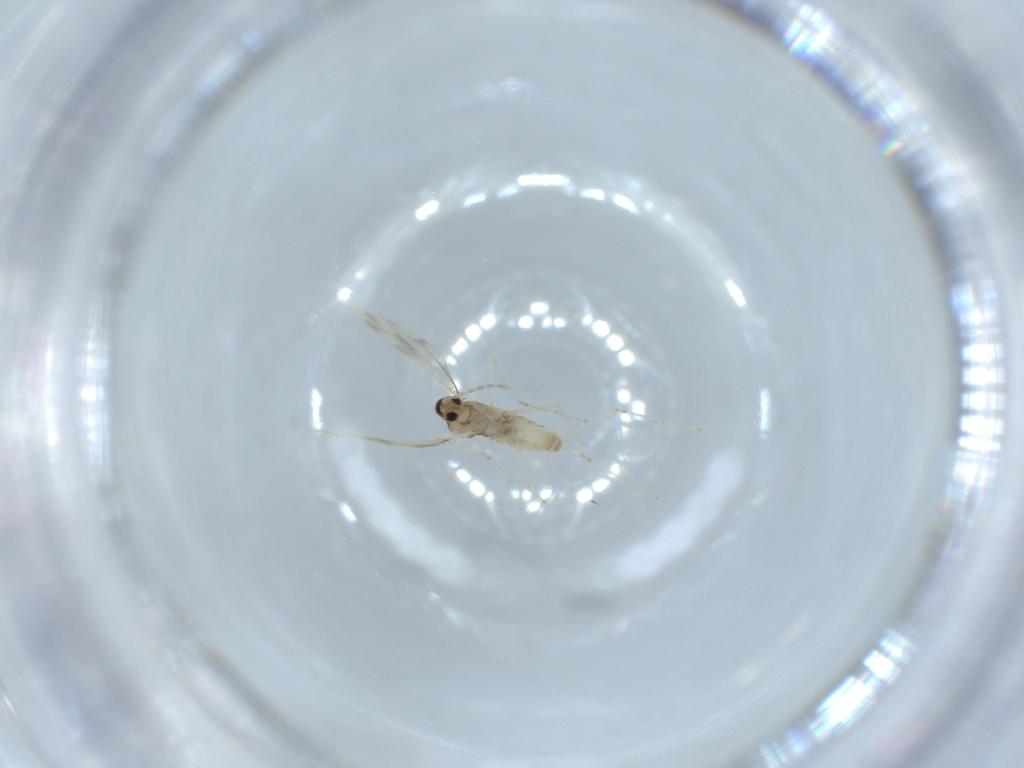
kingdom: Animalia
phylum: Arthropoda
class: Insecta
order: Diptera
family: Cecidomyiidae
